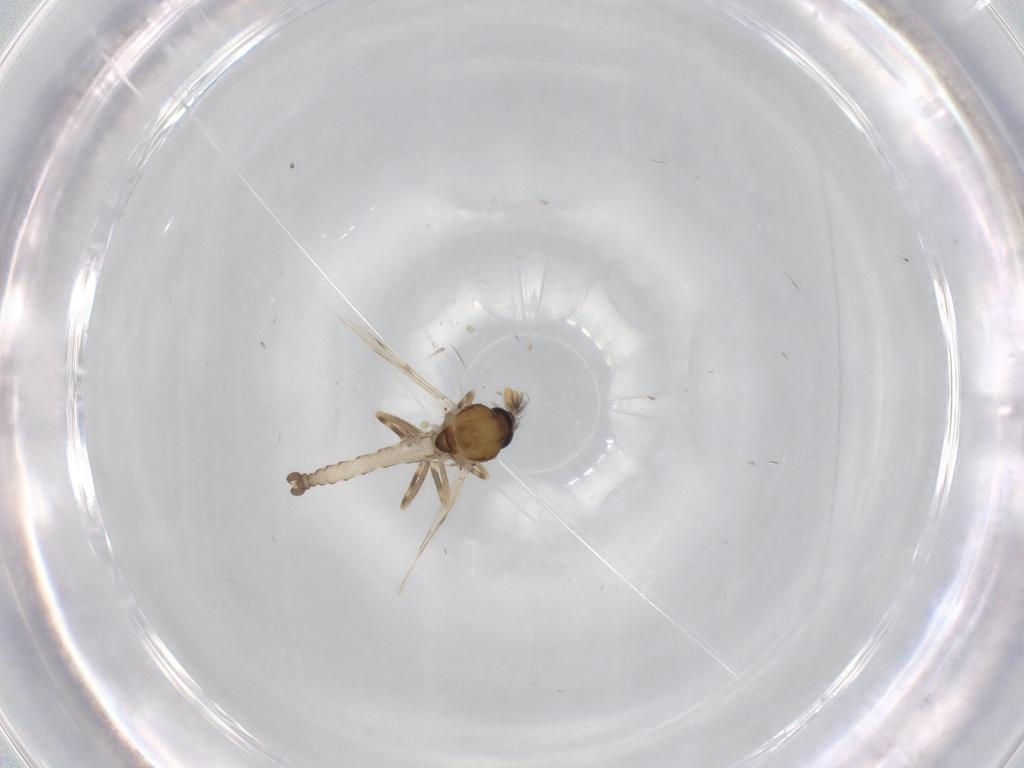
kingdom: Animalia
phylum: Arthropoda
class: Insecta
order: Diptera
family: Ceratopogonidae
